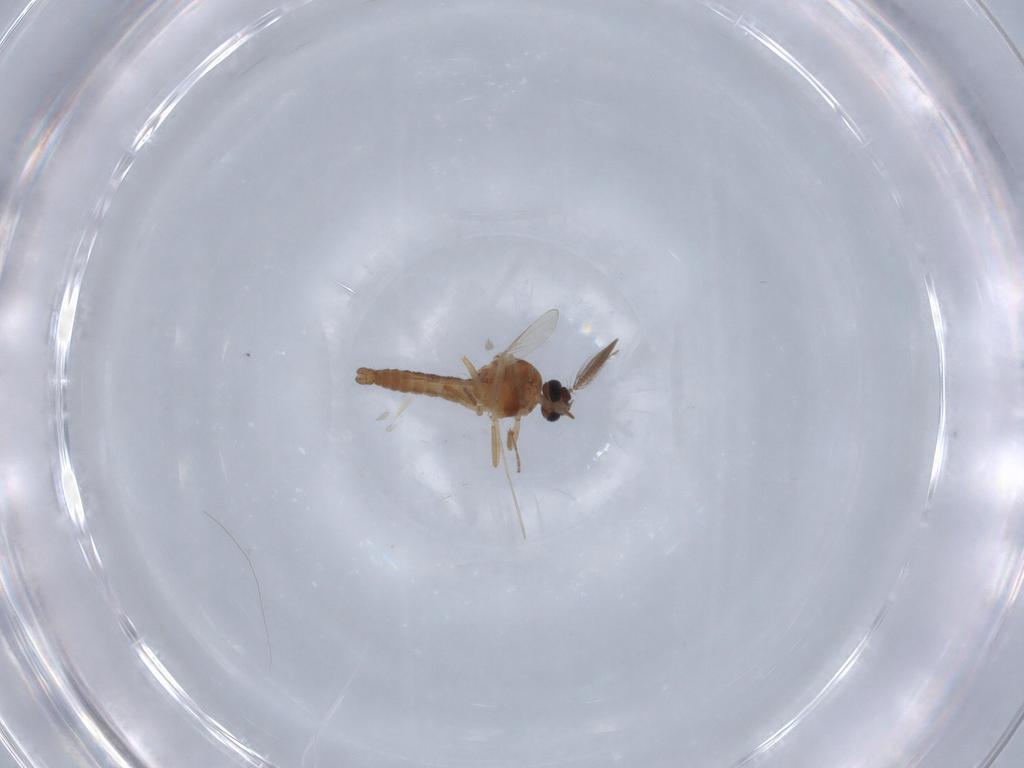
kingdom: Animalia
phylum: Arthropoda
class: Insecta
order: Diptera
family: Ceratopogonidae
